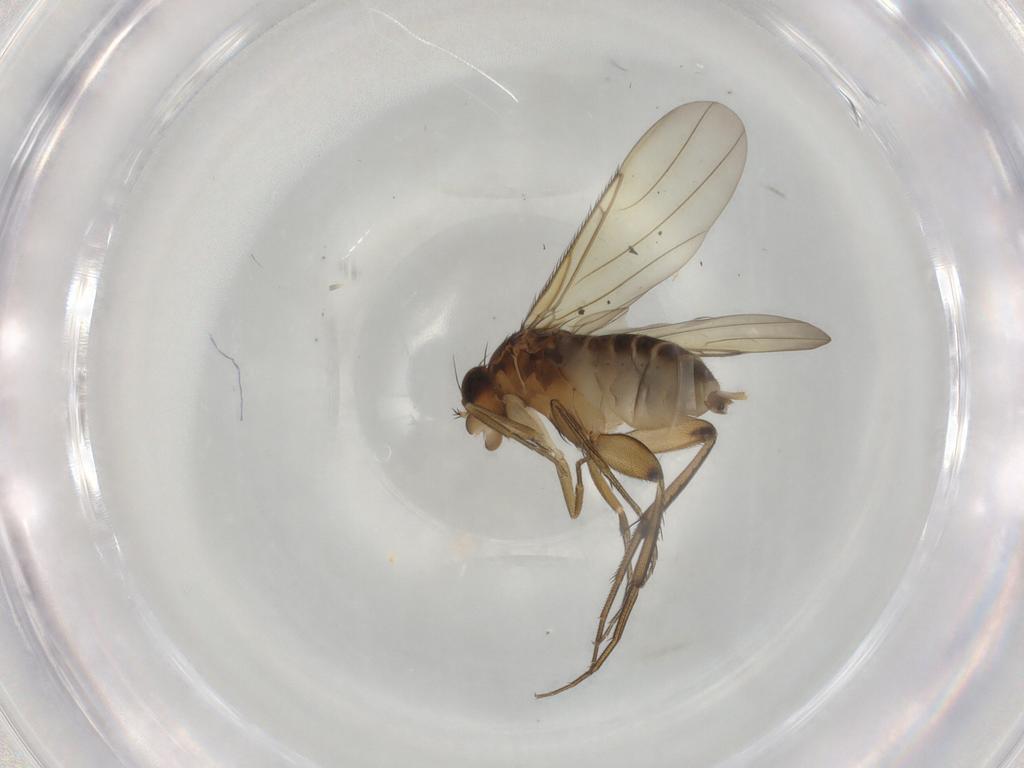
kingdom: Animalia
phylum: Arthropoda
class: Insecta
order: Diptera
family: Phoridae
